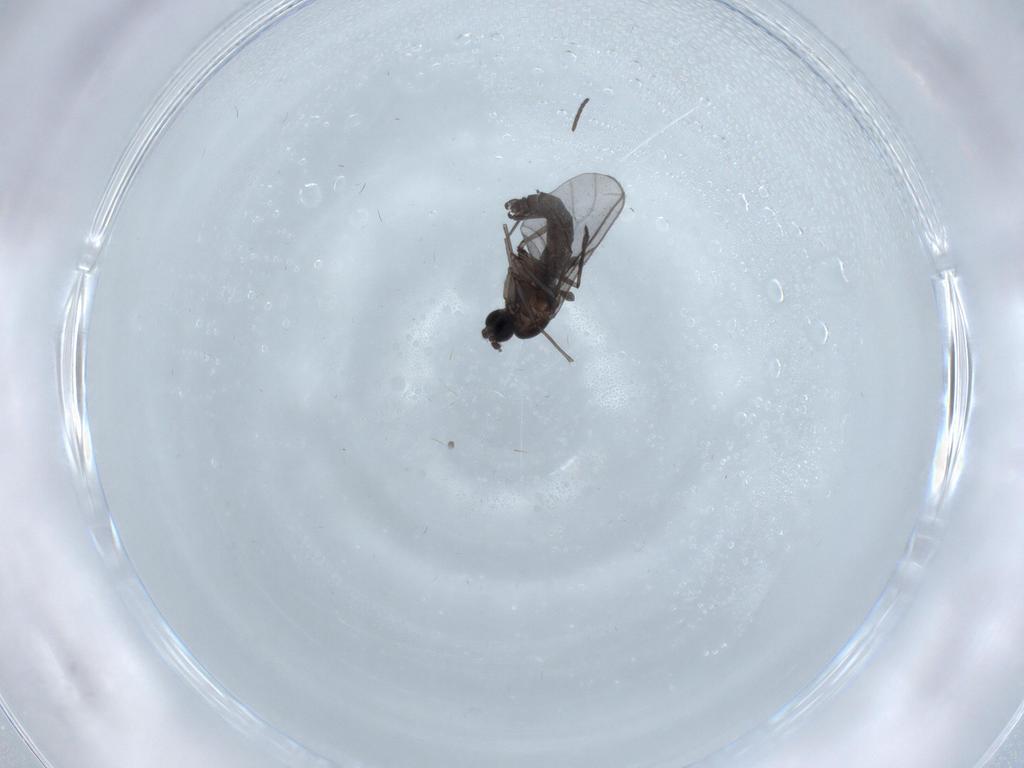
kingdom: Animalia
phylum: Arthropoda
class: Insecta
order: Diptera
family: Sciaridae
